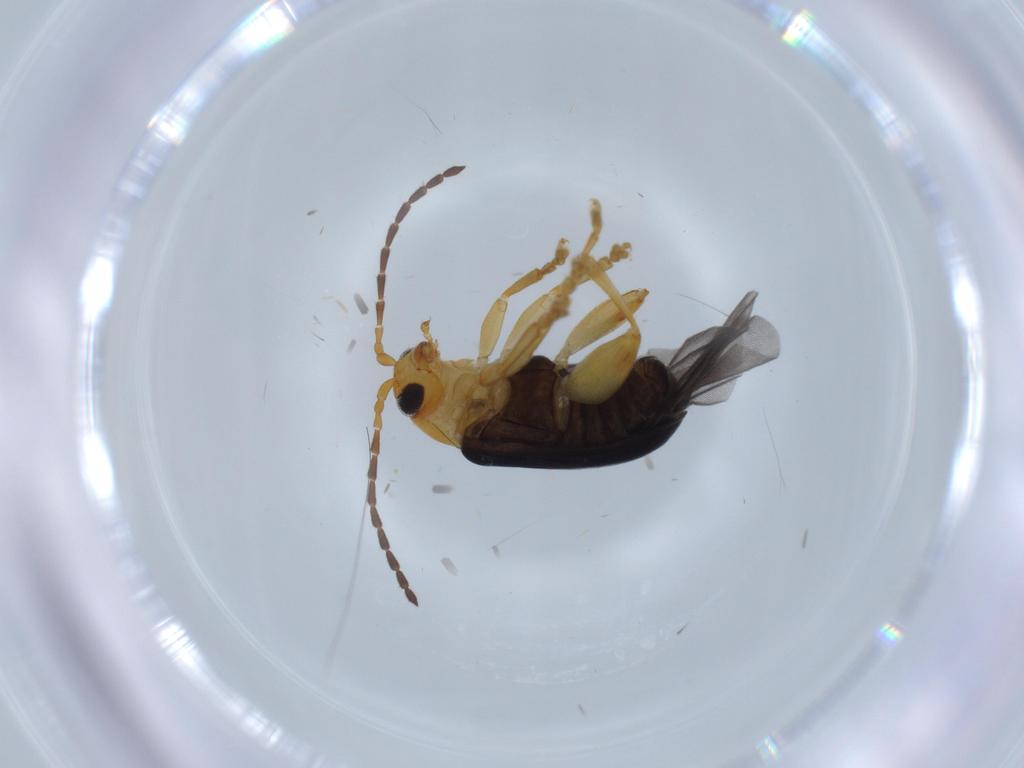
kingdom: Animalia
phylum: Arthropoda
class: Insecta
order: Coleoptera
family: Chrysomelidae
